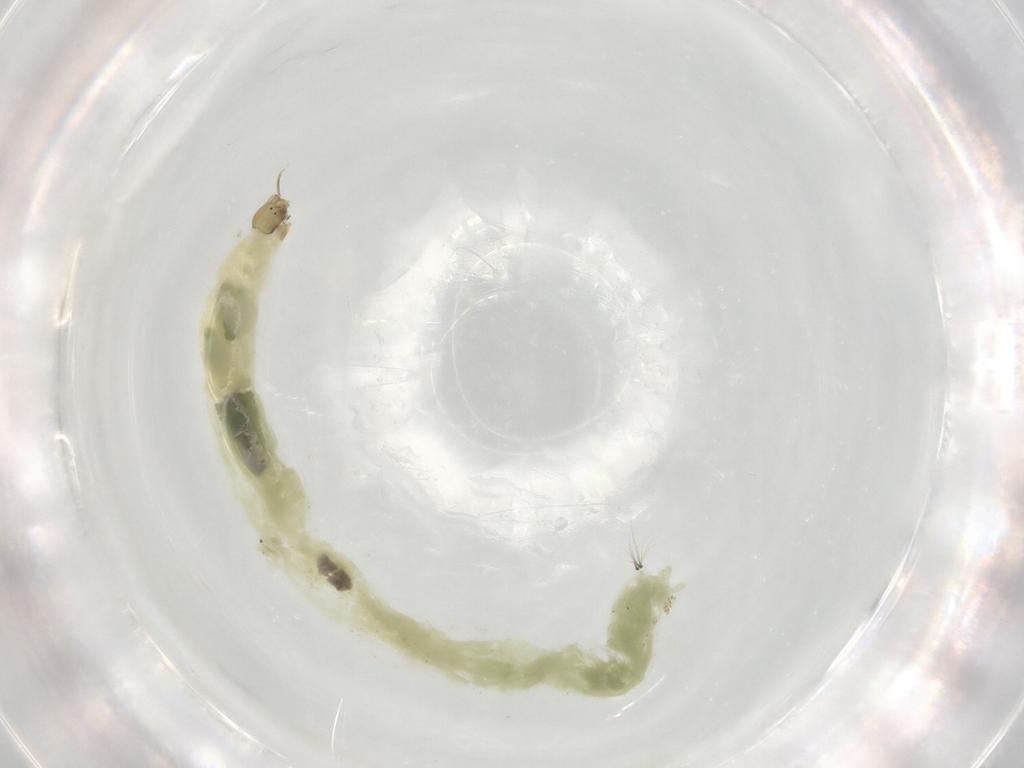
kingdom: Animalia
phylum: Arthropoda
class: Insecta
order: Diptera
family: Chironomidae
